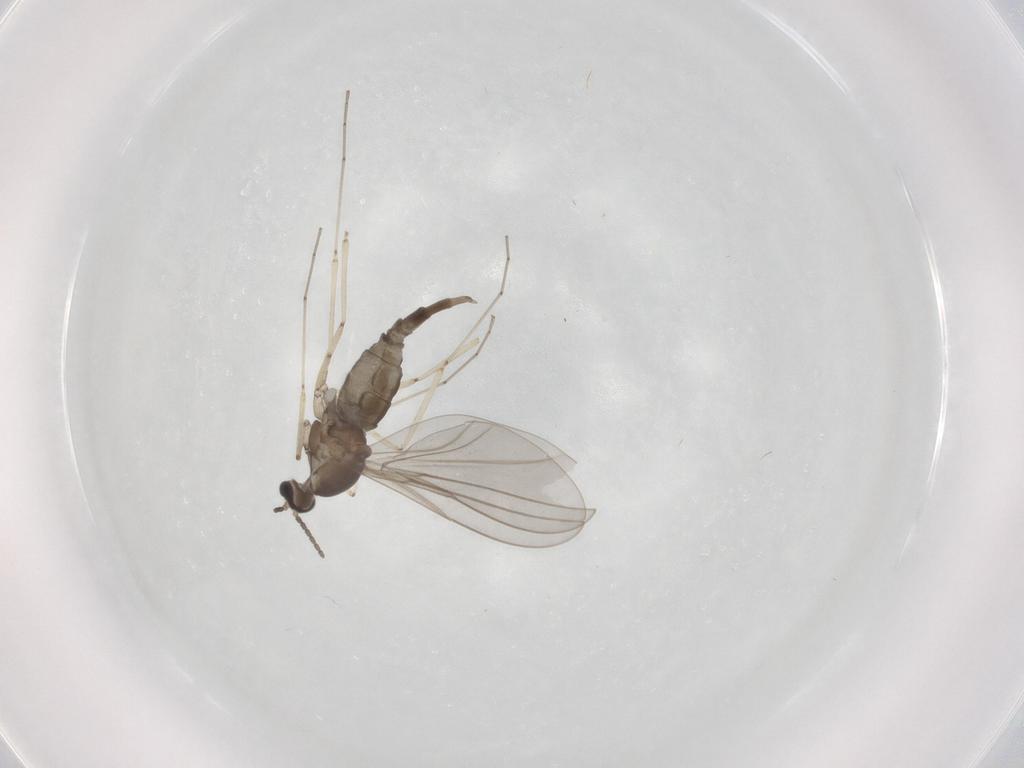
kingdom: Animalia
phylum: Arthropoda
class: Insecta
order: Diptera
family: Cecidomyiidae
